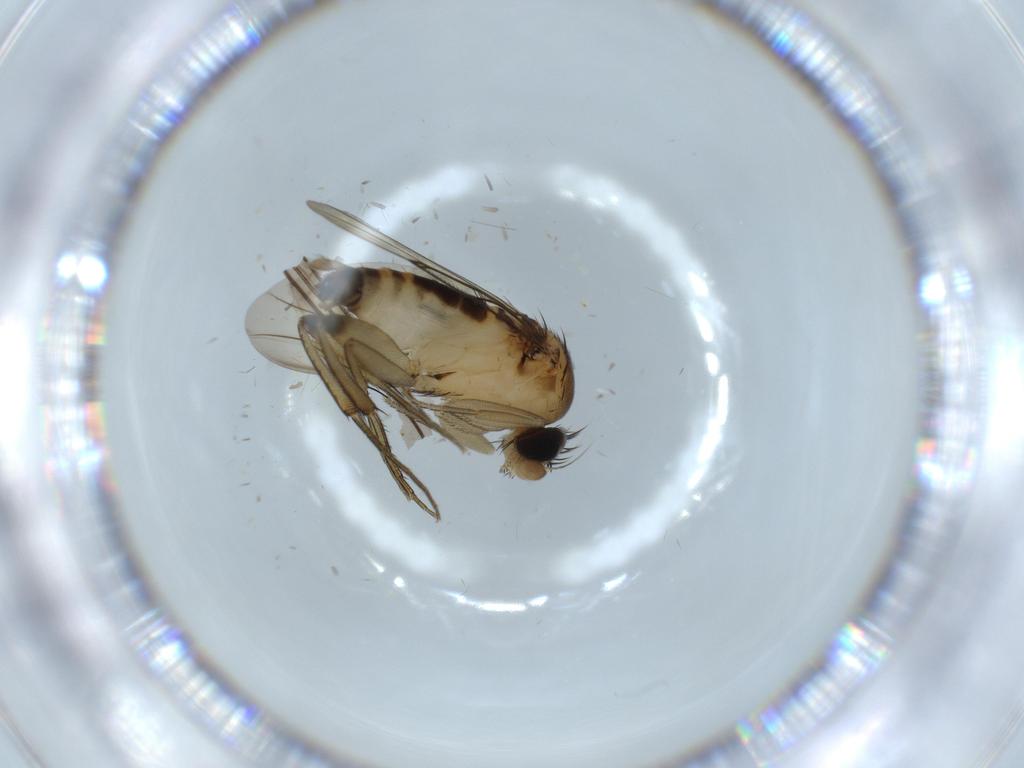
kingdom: Animalia
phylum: Arthropoda
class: Insecta
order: Diptera
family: Phoridae
